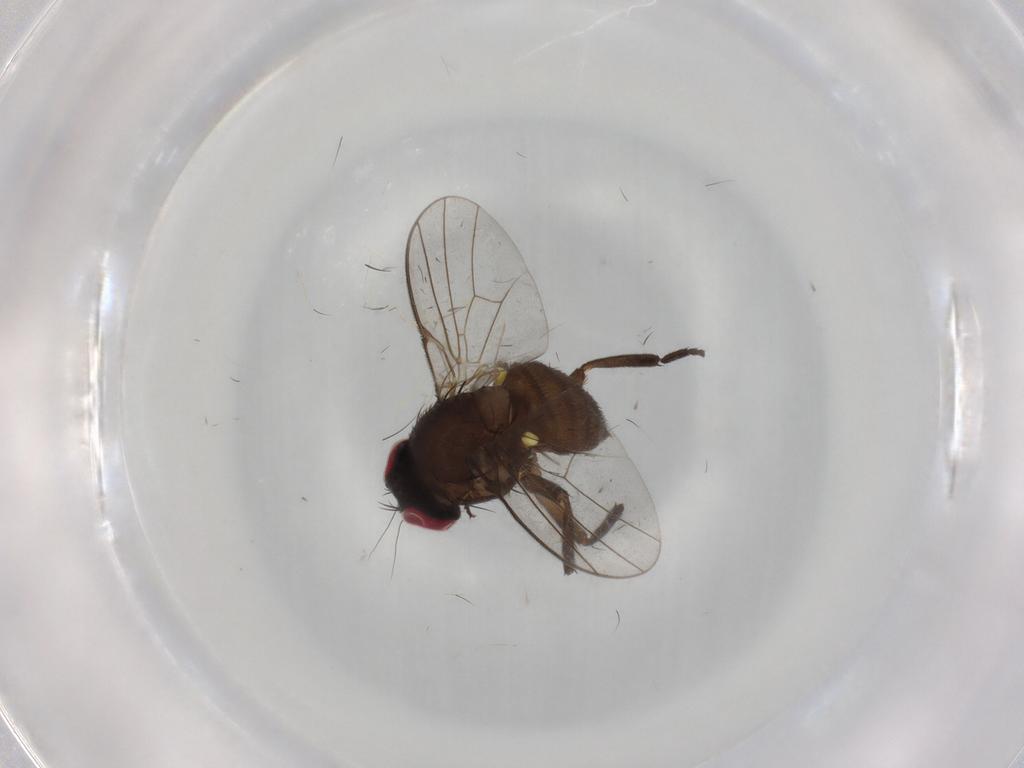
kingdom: Animalia
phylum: Arthropoda
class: Insecta
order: Diptera
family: Agromyzidae
